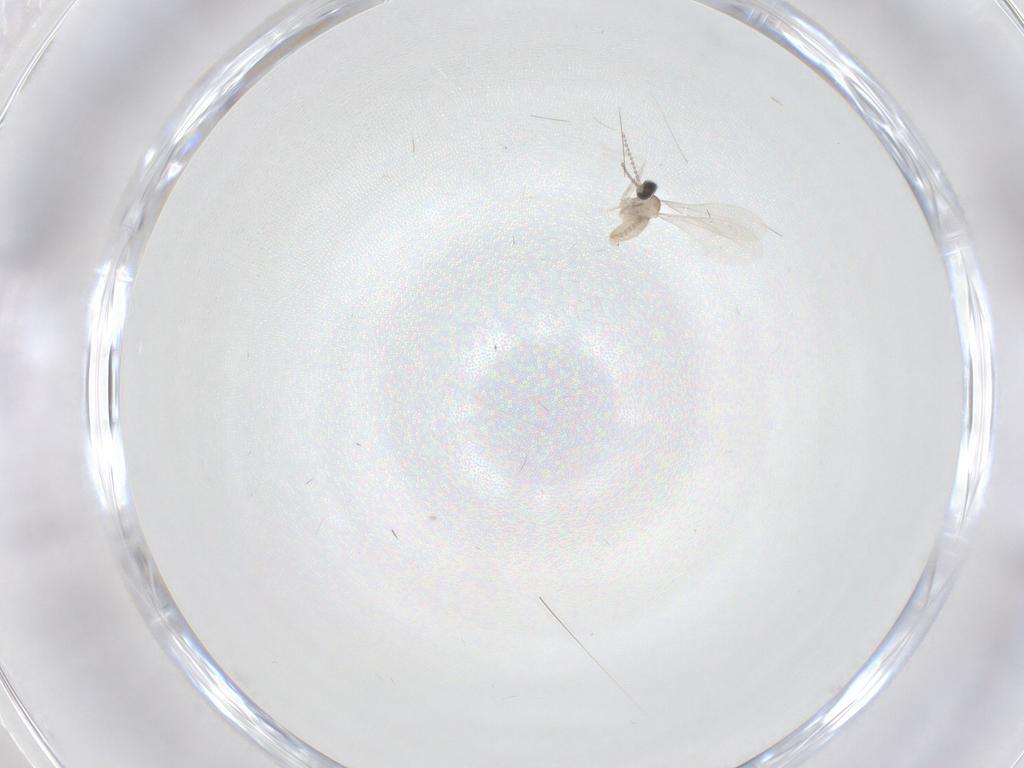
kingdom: Animalia
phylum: Arthropoda
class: Insecta
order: Diptera
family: Cecidomyiidae
